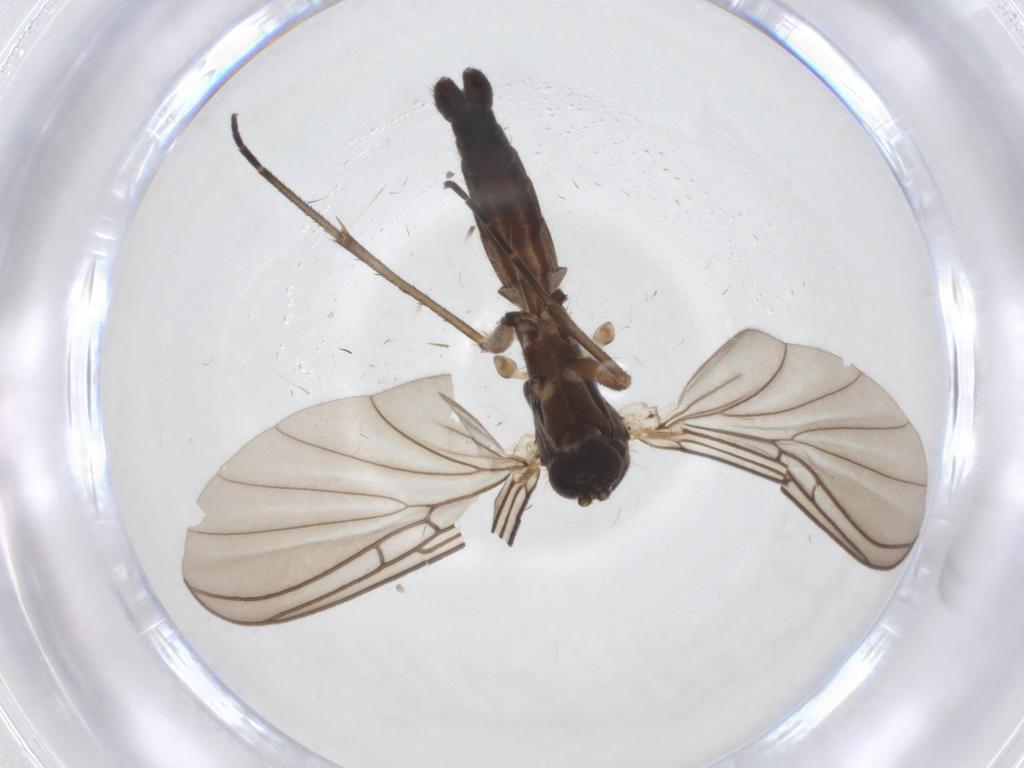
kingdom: Animalia
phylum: Arthropoda
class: Insecta
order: Diptera
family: Mycetophilidae
